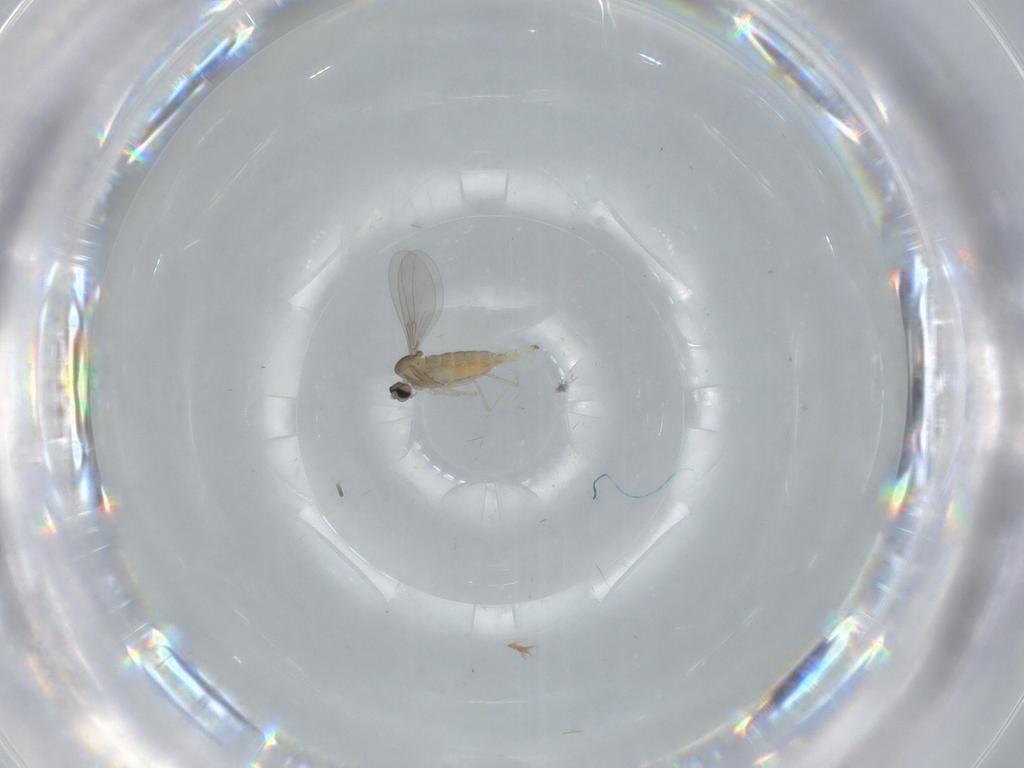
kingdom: Animalia
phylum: Arthropoda
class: Insecta
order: Diptera
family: Cecidomyiidae
